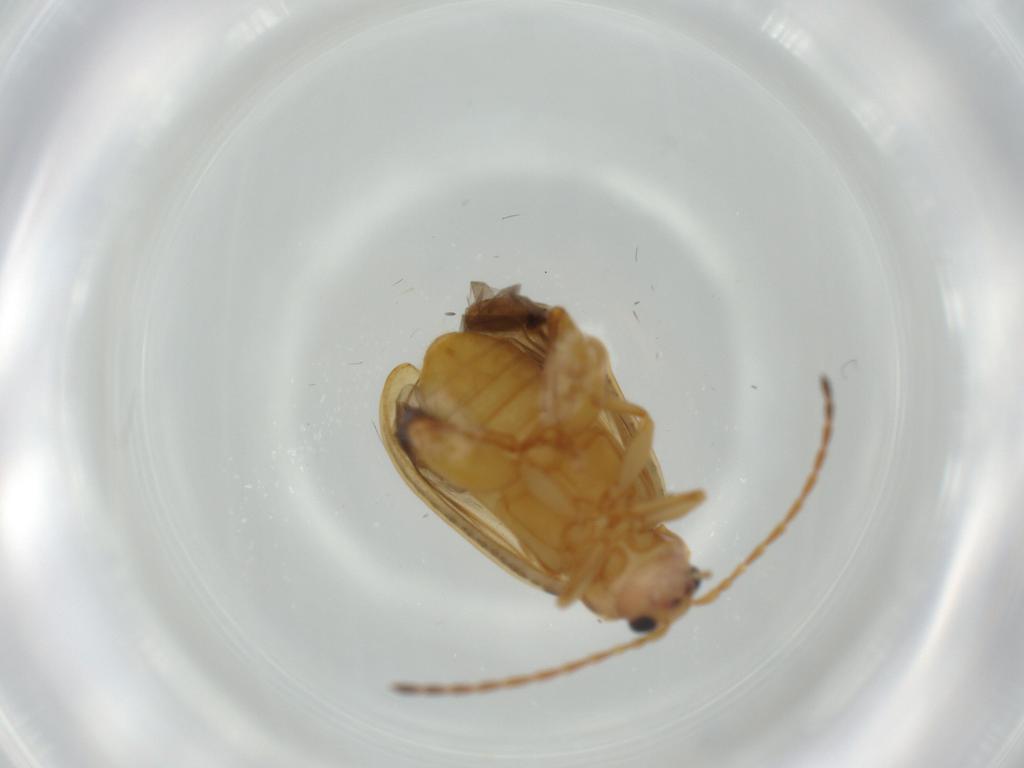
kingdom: Animalia
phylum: Arthropoda
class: Insecta
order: Coleoptera
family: Chrysomelidae
